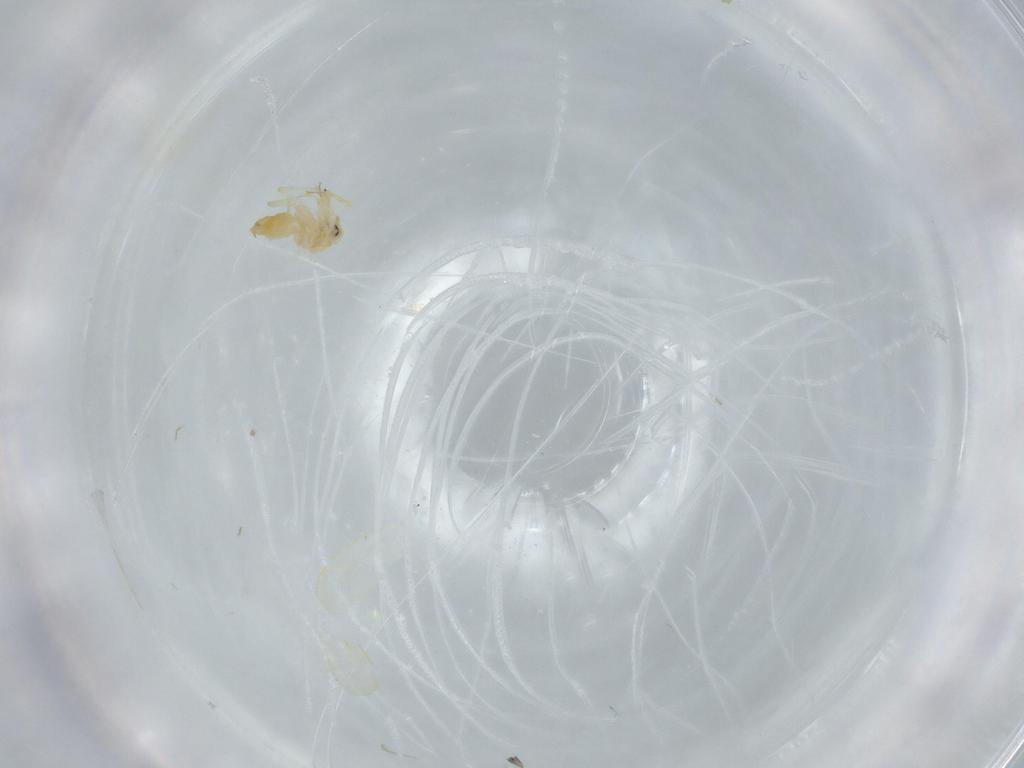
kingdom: Animalia
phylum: Arthropoda
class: Insecta
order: Hemiptera
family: Aleyrodidae
